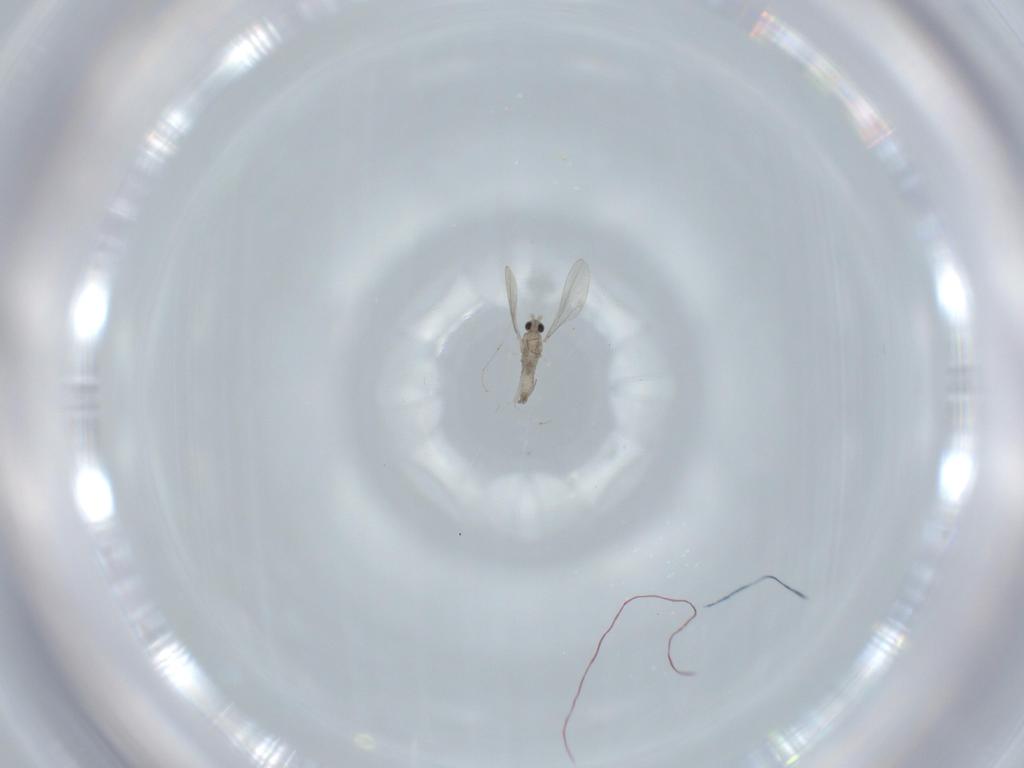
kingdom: Animalia
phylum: Arthropoda
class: Insecta
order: Diptera
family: Cecidomyiidae
